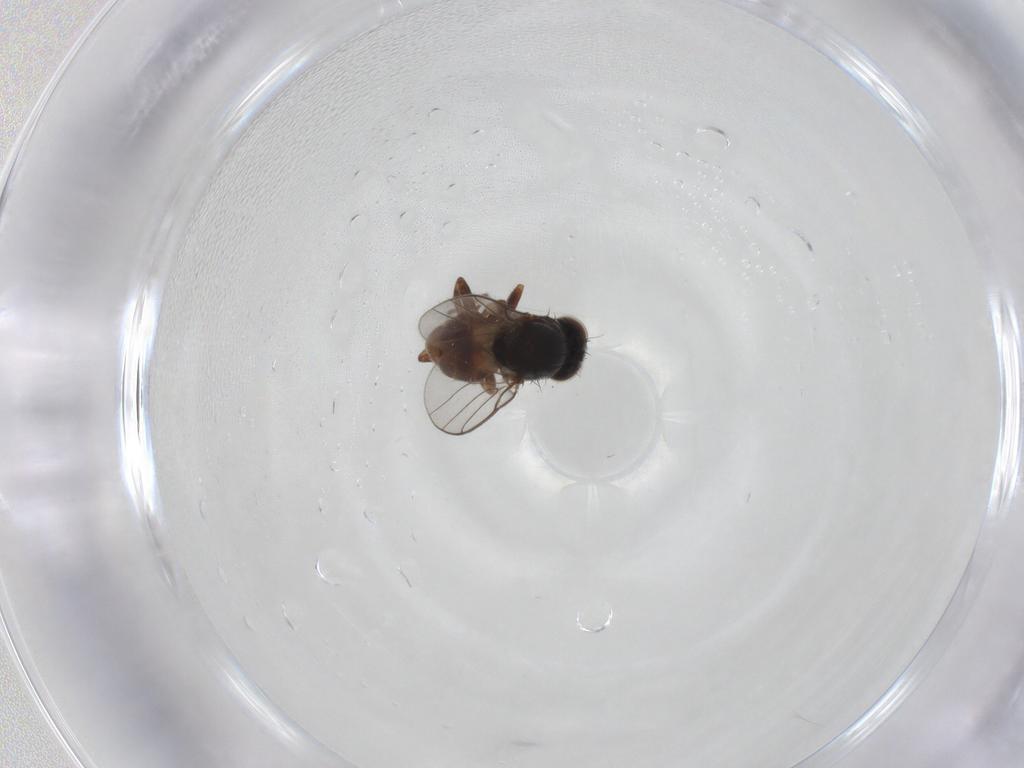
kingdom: Animalia
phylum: Arthropoda
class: Insecta
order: Diptera
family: Chloropidae
